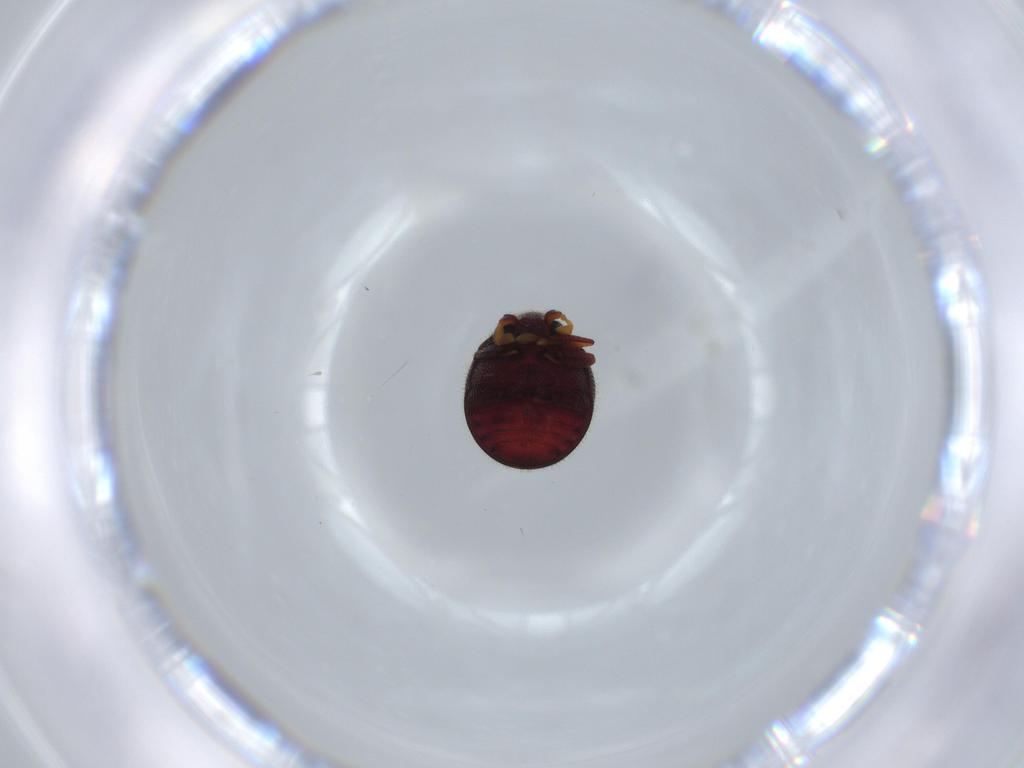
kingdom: Animalia
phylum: Arthropoda
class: Insecta
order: Coleoptera
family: Ptinidae
